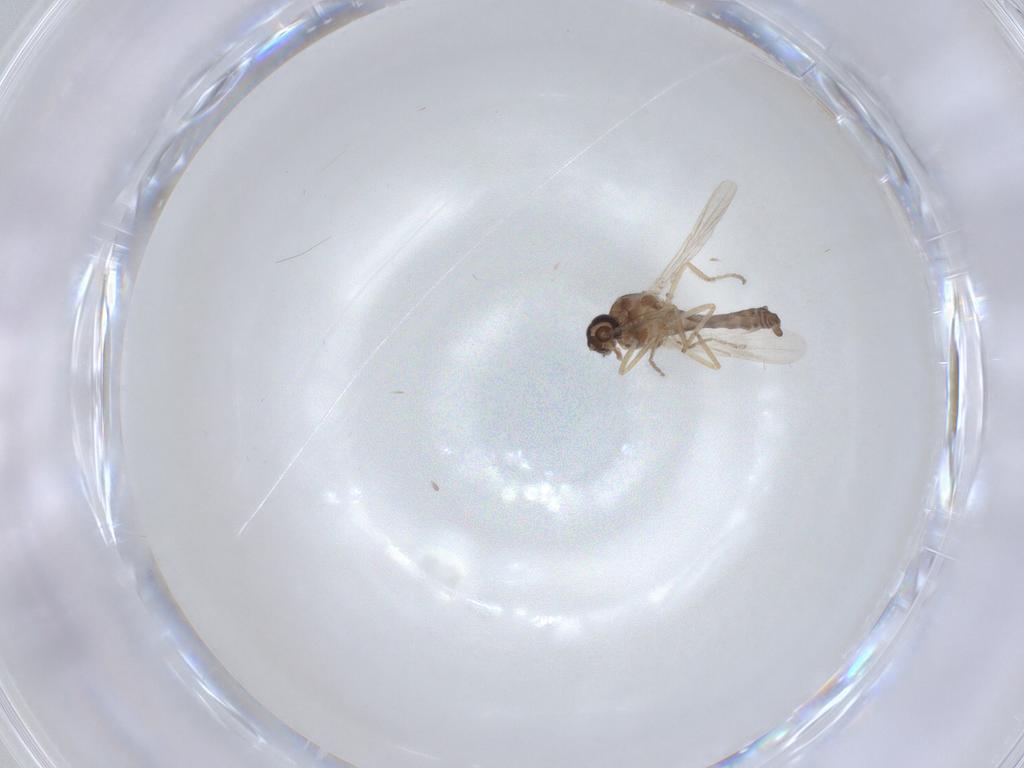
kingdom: Animalia
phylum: Arthropoda
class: Insecta
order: Diptera
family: Ceratopogonidae
